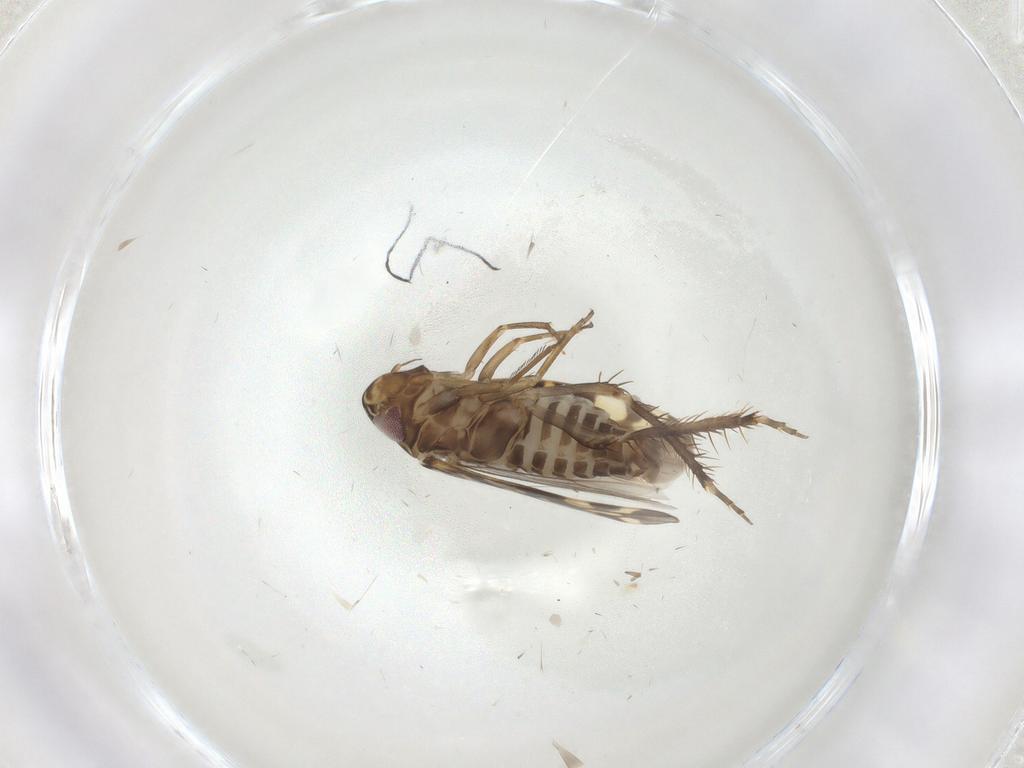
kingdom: Animalia
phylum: Arthropoda
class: Insecta
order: Hemiptera
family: Cicadellidae
